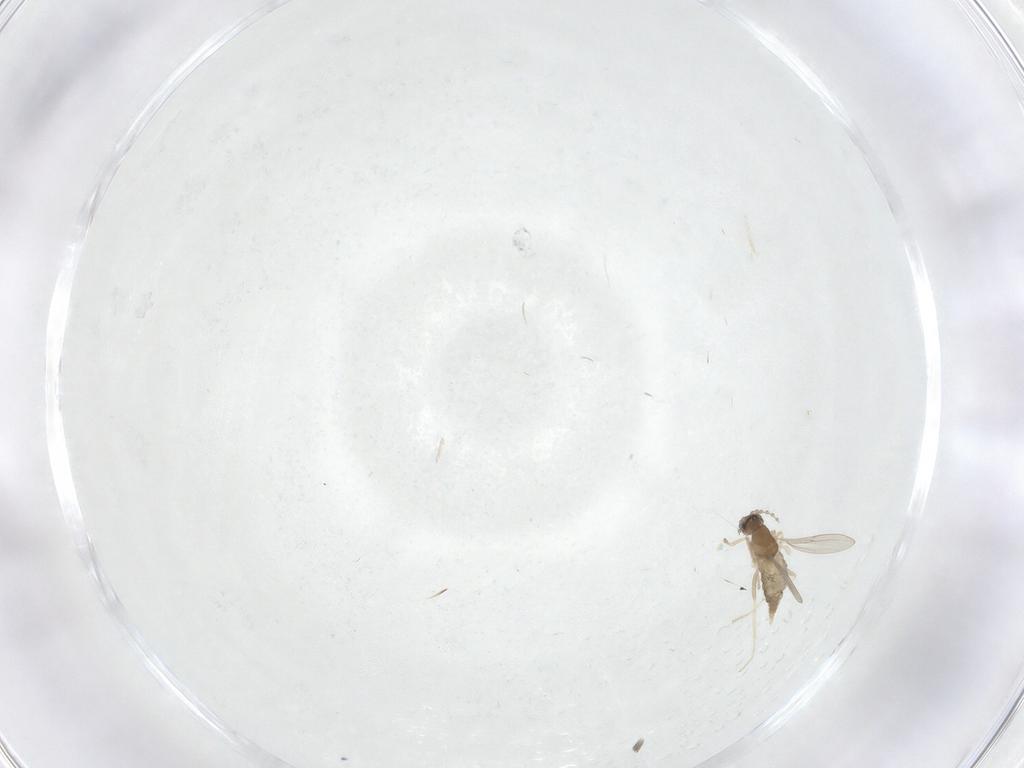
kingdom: Animalia
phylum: Arthropoda
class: Insecta
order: Diptera
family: Cecidomyiidae
